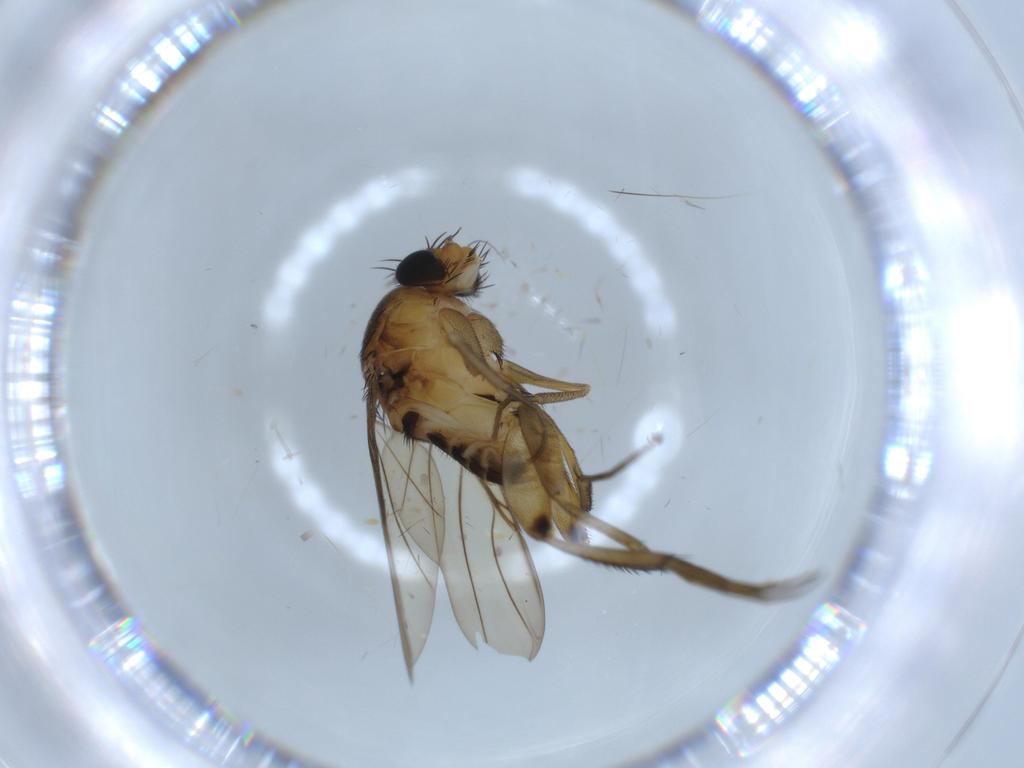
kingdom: Animalia
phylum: Arthropoda
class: Insecta
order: Diptera
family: Phoridae
